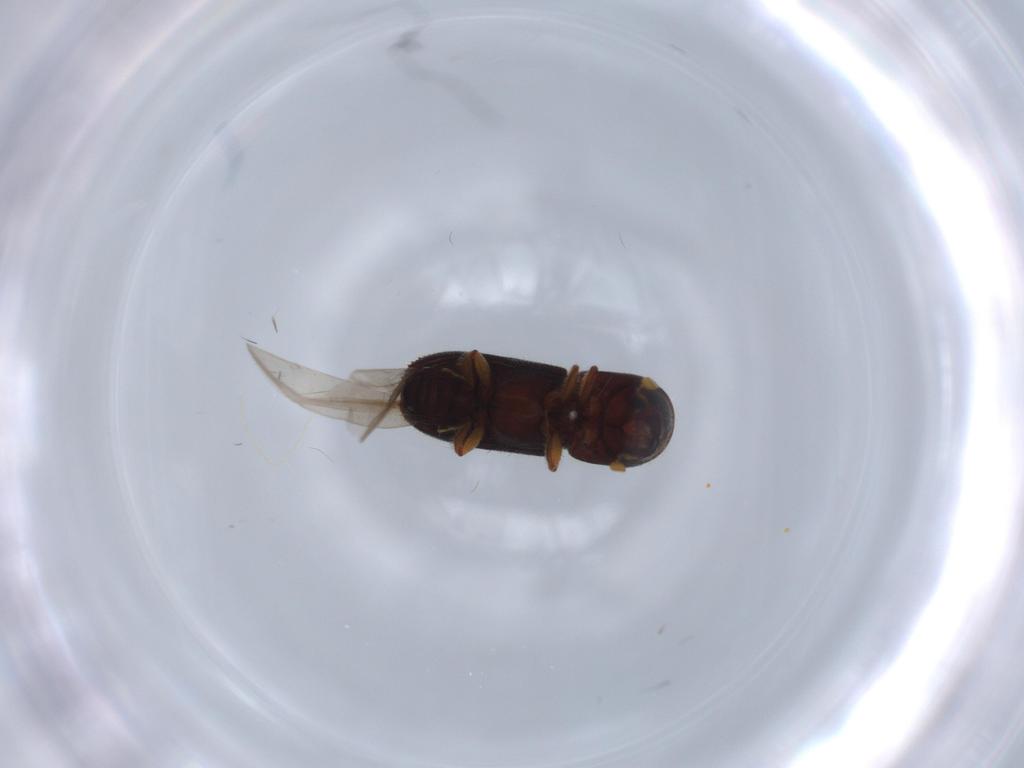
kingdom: Animalia
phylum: Arthropoda
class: Insecta
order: Coleoptera
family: Curculionidae
